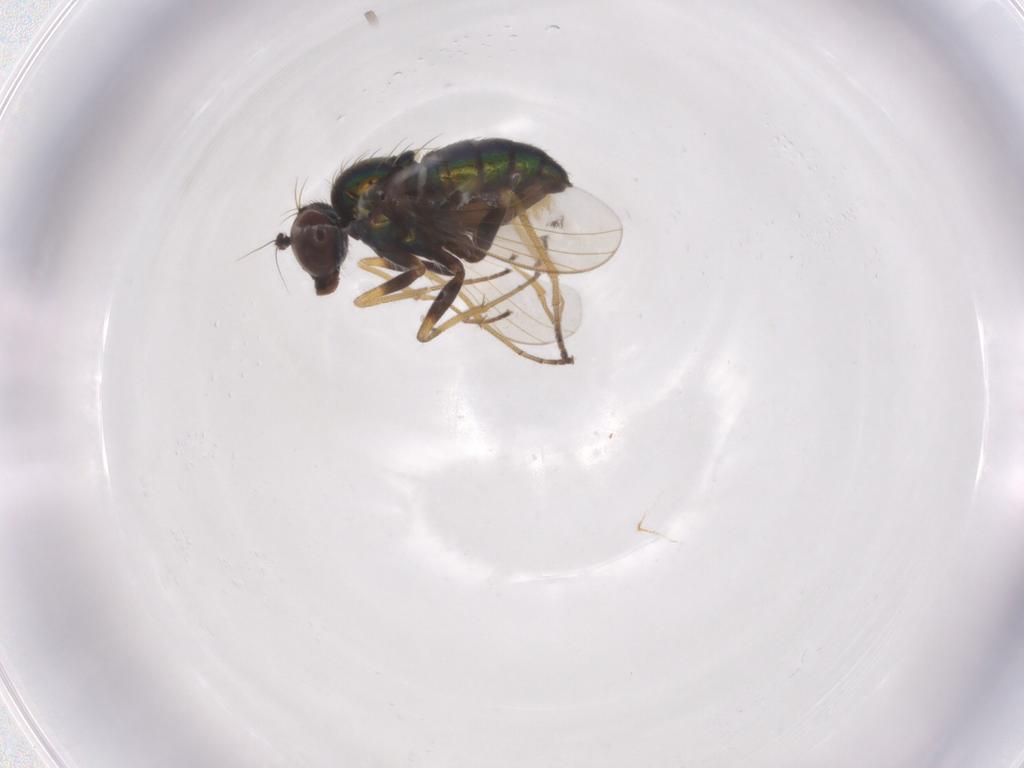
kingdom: Animalia
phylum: Arthropoda
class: Insecta
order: Diptera
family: Dolichopodidae
